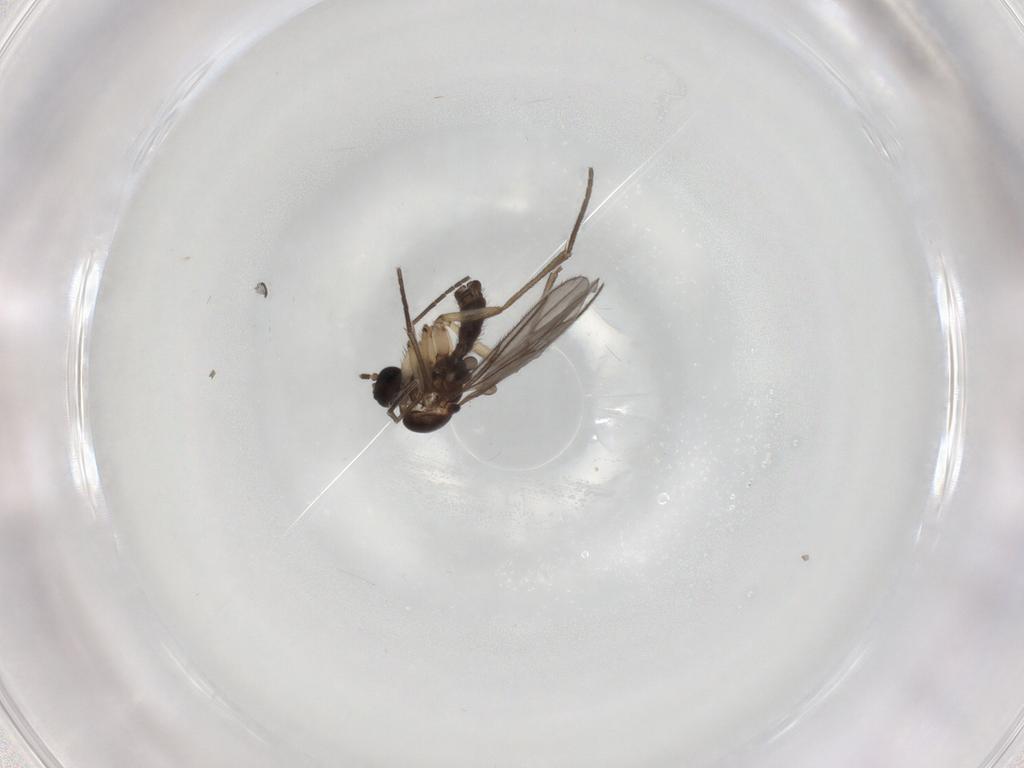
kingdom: Animalia
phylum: Arthropoda
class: Insecta
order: Diptera
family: Sciaridae
